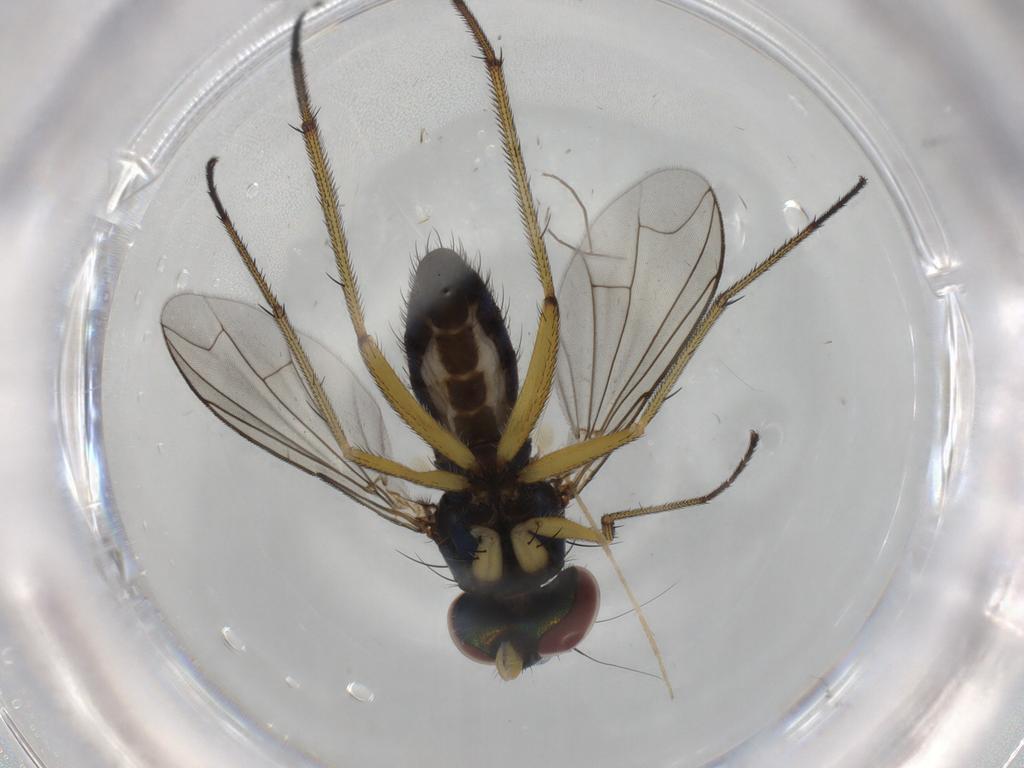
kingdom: Animalia
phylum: Arthropoda
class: Insecta
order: Diptera
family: Dolichopodidae
